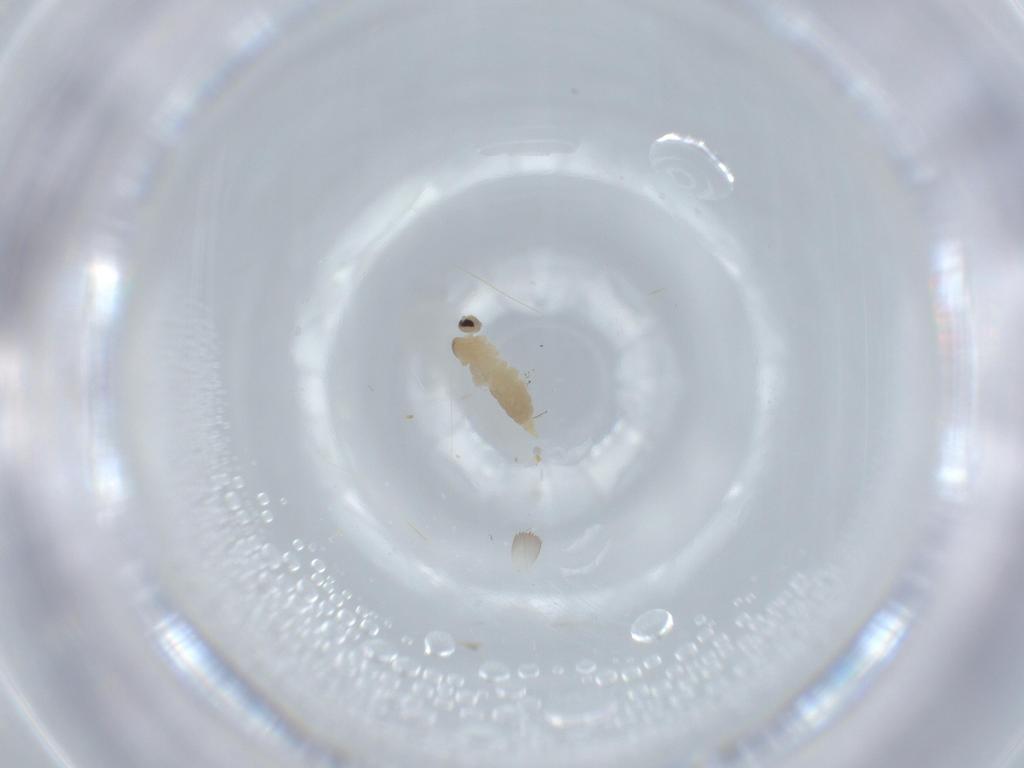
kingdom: Animalia
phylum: Arthropoda
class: Insecta
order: Diptera
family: Cecidomyiidae
